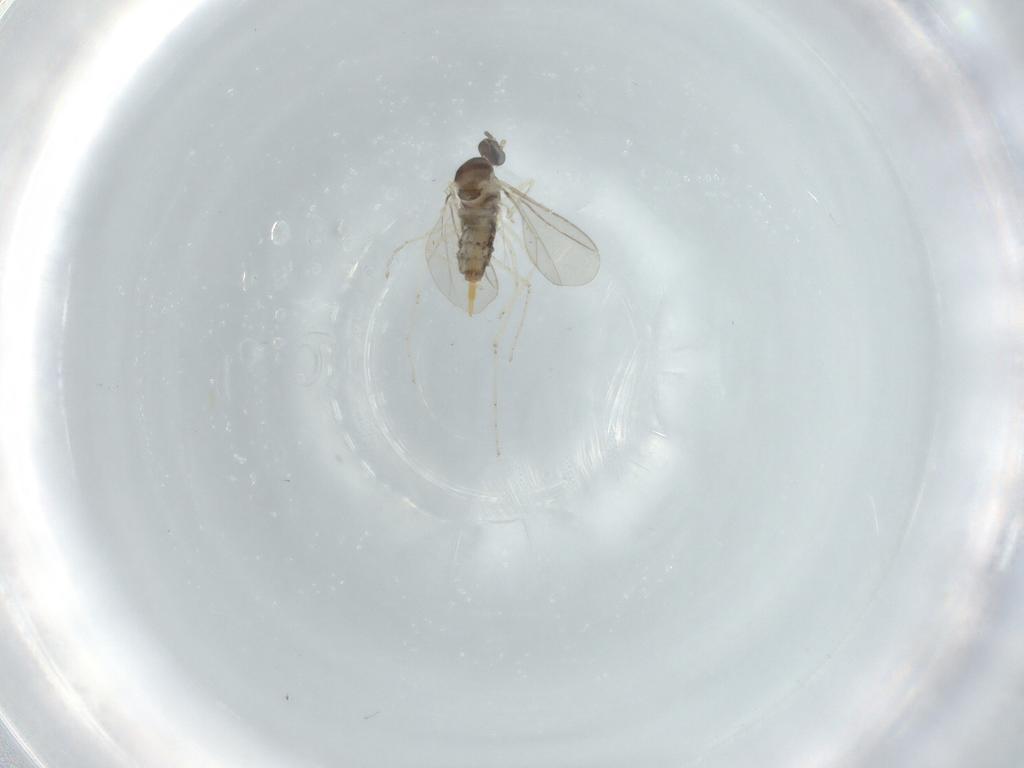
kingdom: Animalia
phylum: Arthropoda
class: Insecta
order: Diptera
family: Cecidomyiidae
